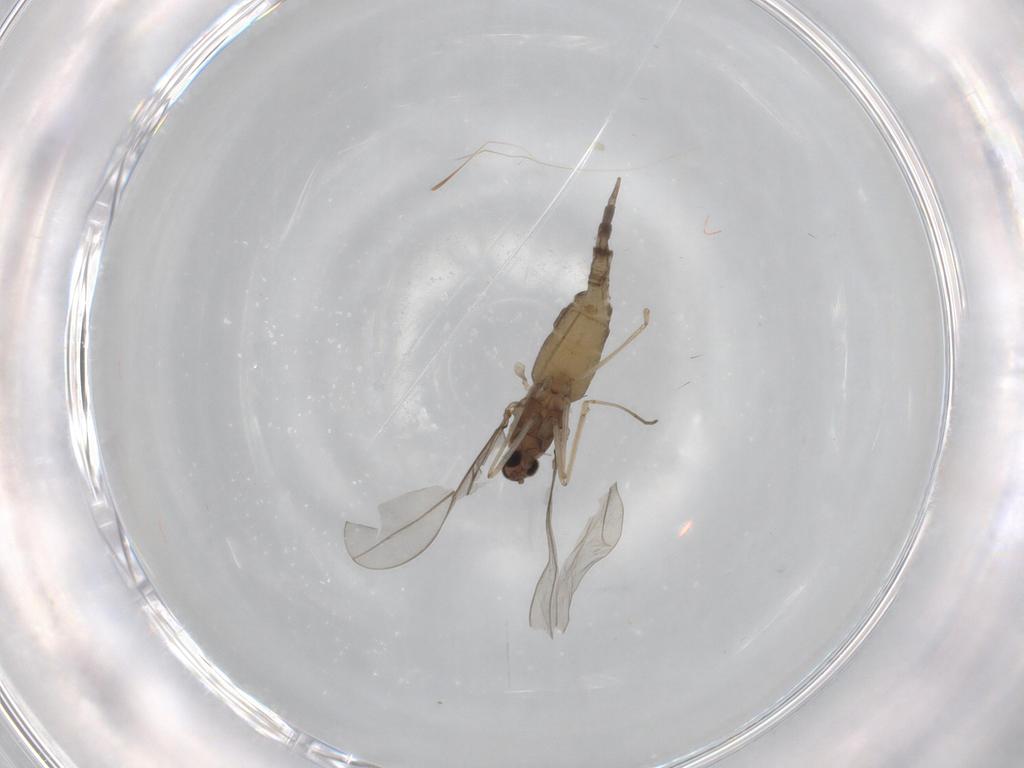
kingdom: Animalia
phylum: Arthropoda
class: Insecta
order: Diptera
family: Cecidomyiidae
